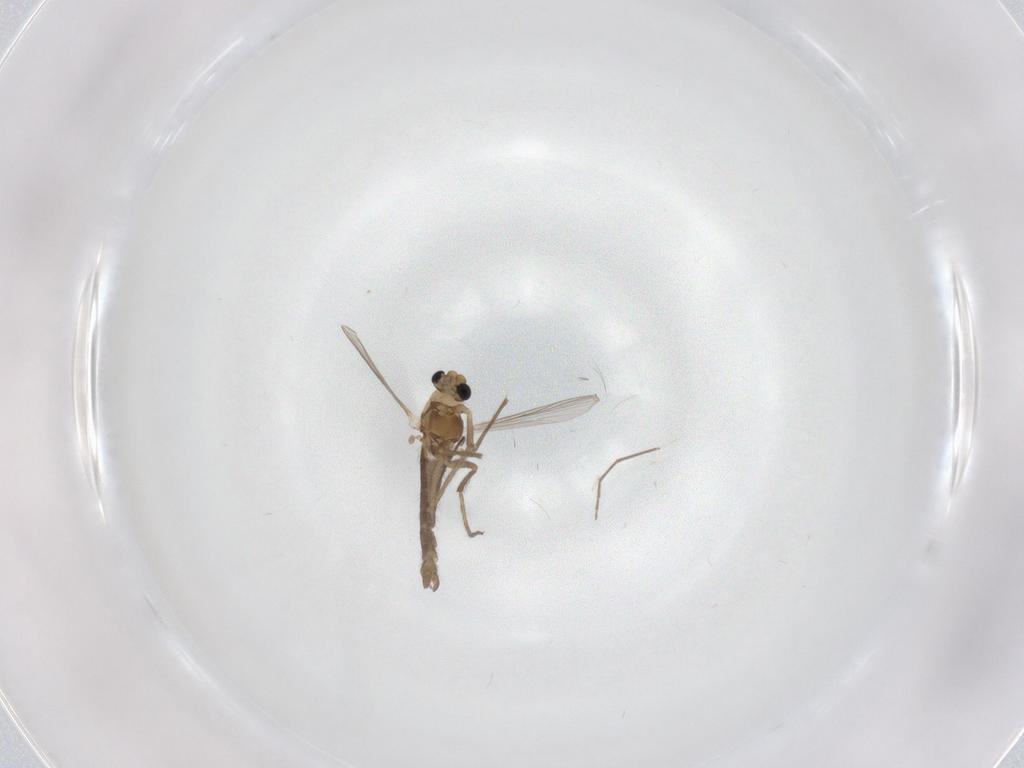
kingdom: Animalia
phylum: Arthropoda
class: Insecta
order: Diptera
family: Chironomidae
